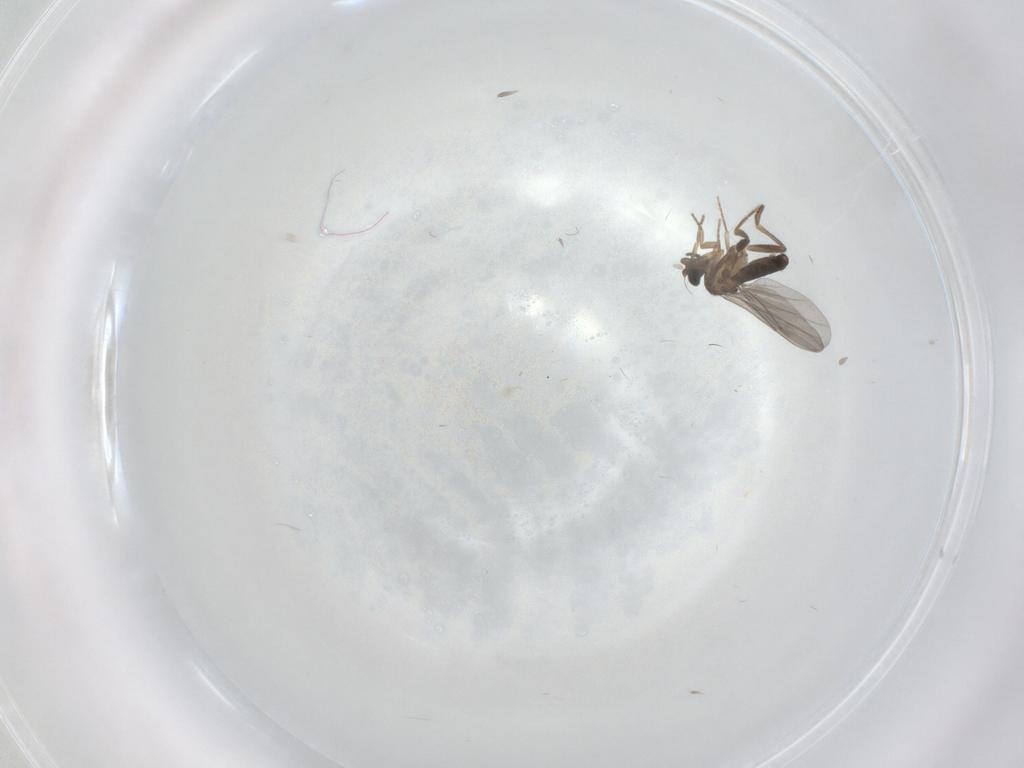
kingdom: Animalia
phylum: Arthropoda
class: Insecta
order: Diptera
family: Phoridae
